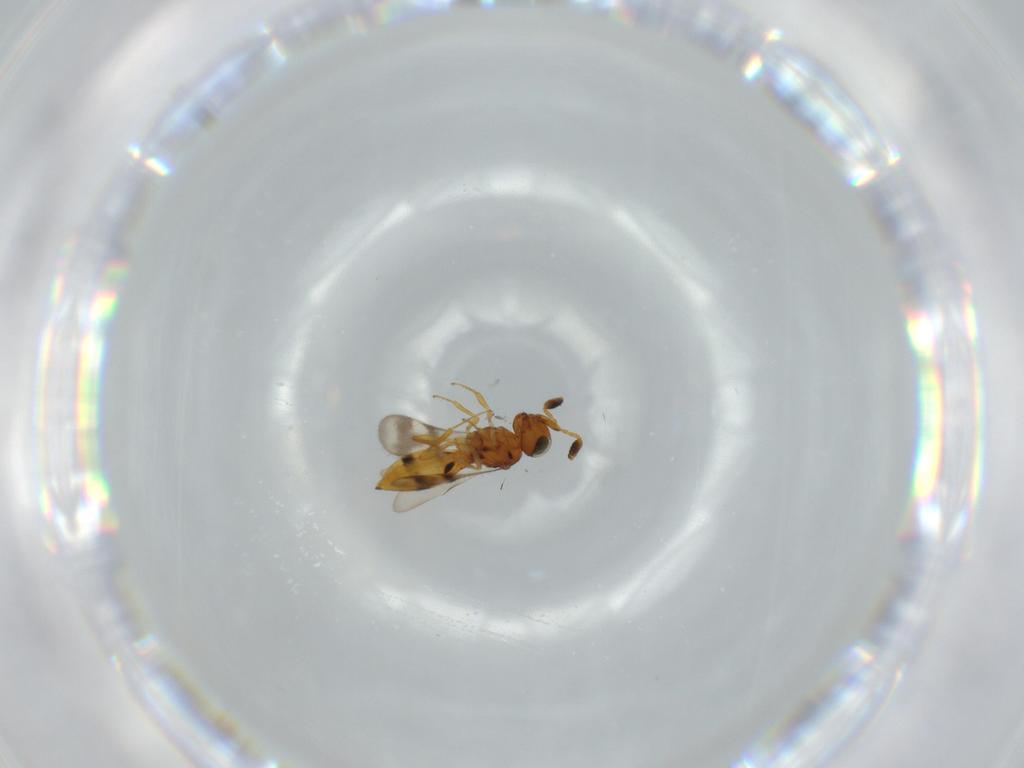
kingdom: Animalia
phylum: Arthropoda
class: Insecta
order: Hymenoptera
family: Scelionidae
